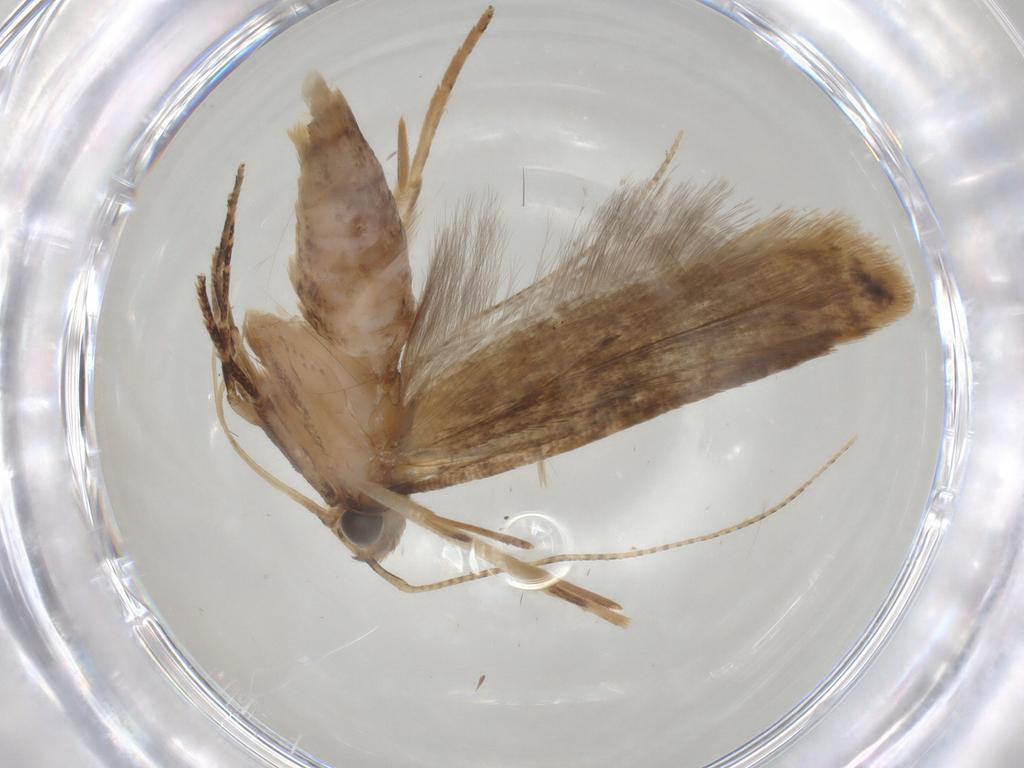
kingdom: Animalia
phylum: Arthropoda
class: Insecta
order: Lepidoptera
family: Gelechiidae
